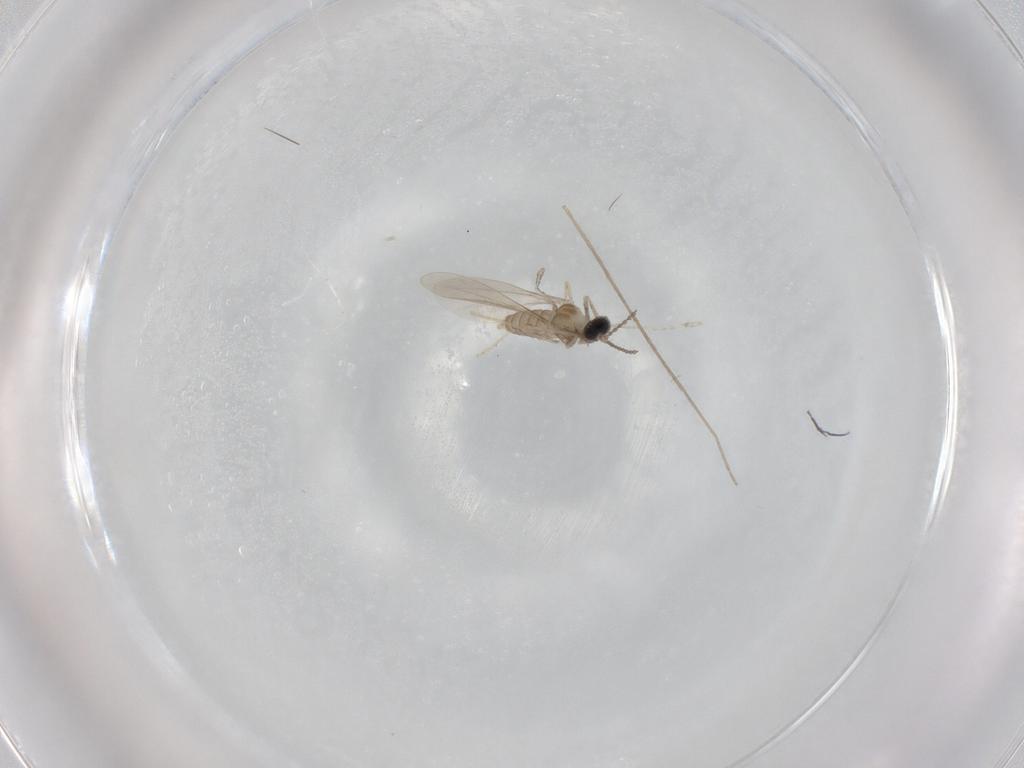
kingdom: Animalia
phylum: Arthropoda
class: Insecta
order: Diptera
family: Cecidomyiidae
